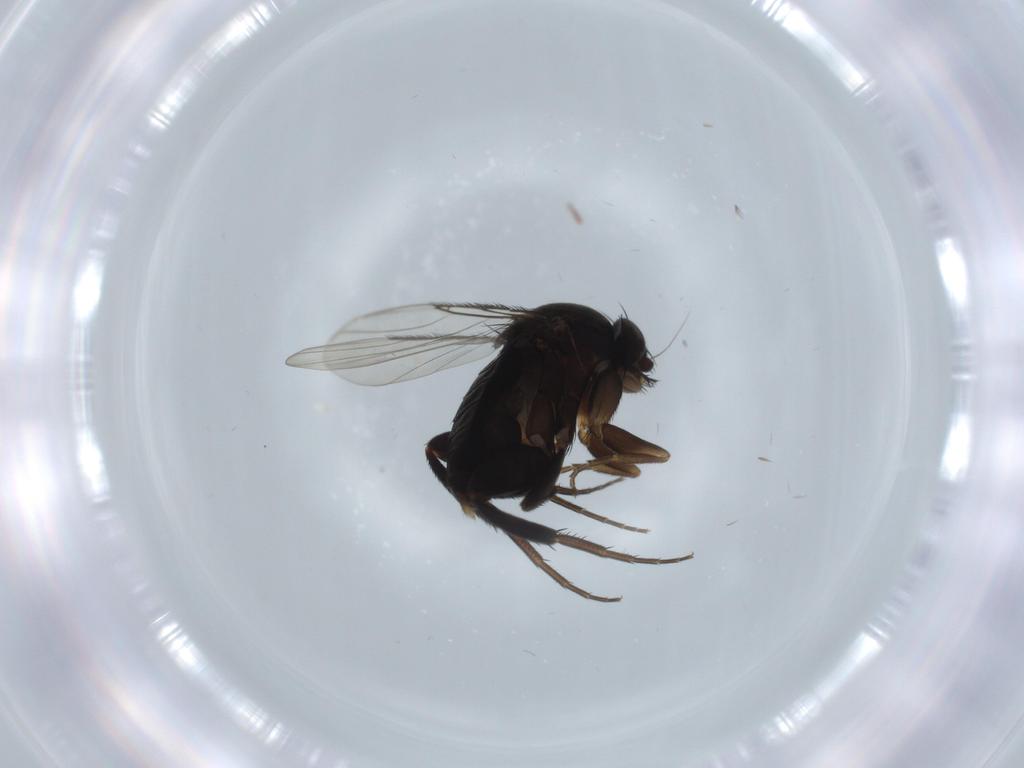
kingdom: Animalia
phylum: Arthropoda
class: Insecta
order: Diptera
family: Phoridae
